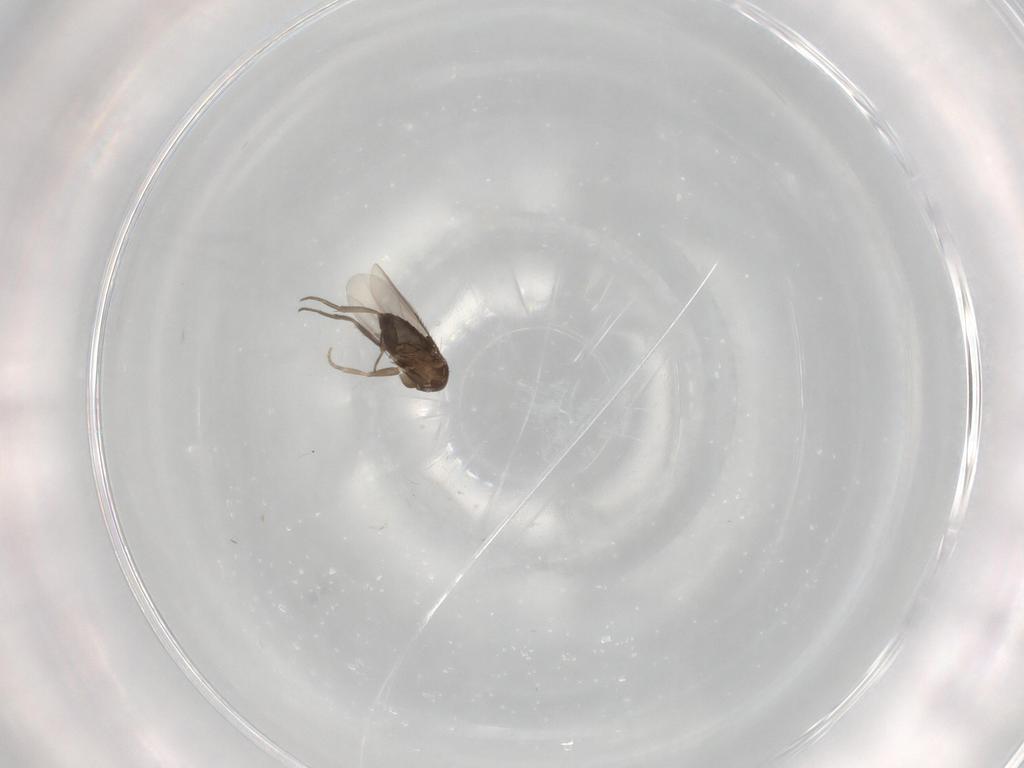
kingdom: Animalia
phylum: Arthropoda
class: Insecta
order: Diptera
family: Cecidomyiidae
